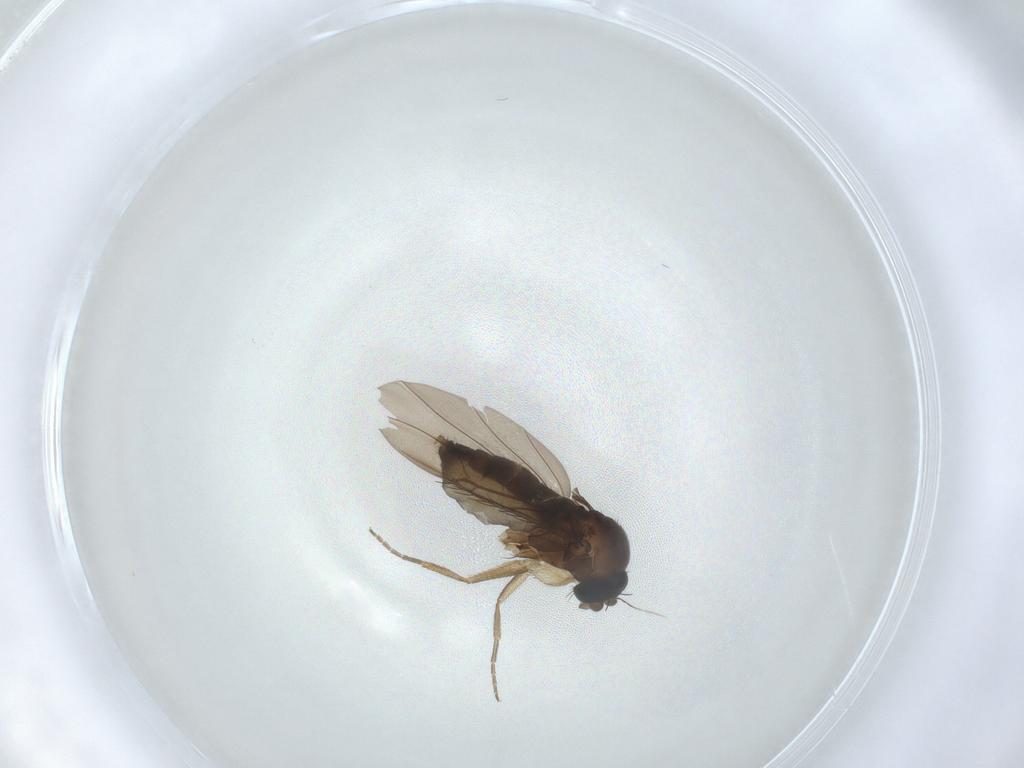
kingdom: Animalia
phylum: Arthropoda
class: Insecta
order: Diptera
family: Phoridae
